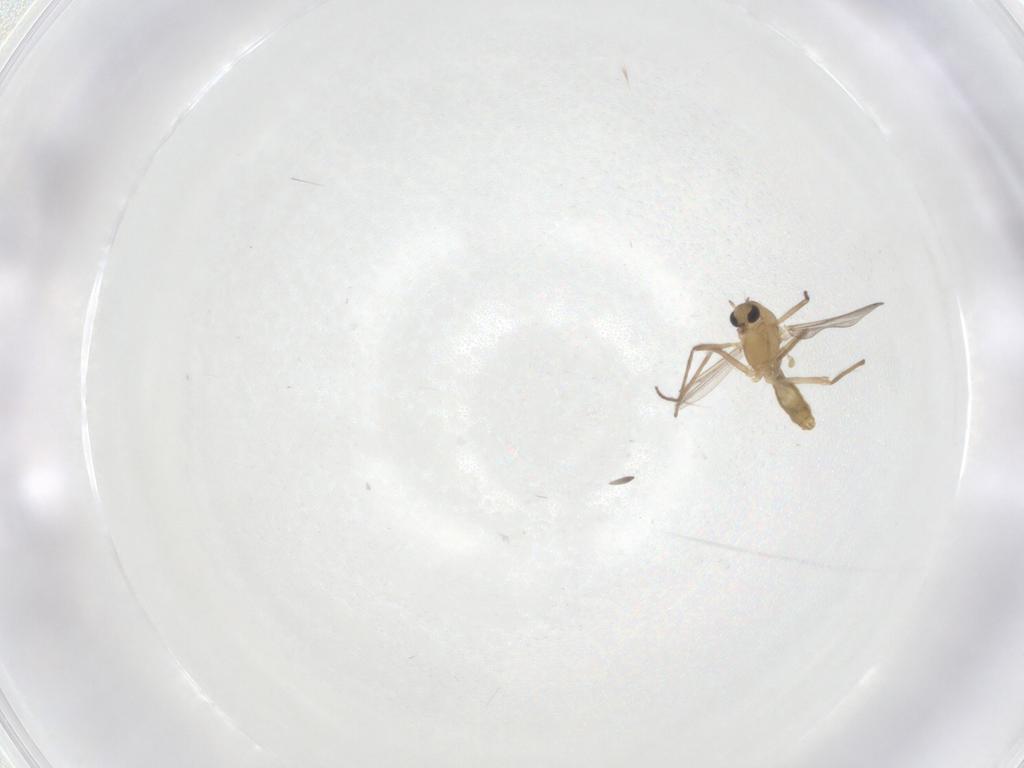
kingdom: Animalia
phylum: Arthropoda
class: Insecta
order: Diptera
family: Chironomidae
